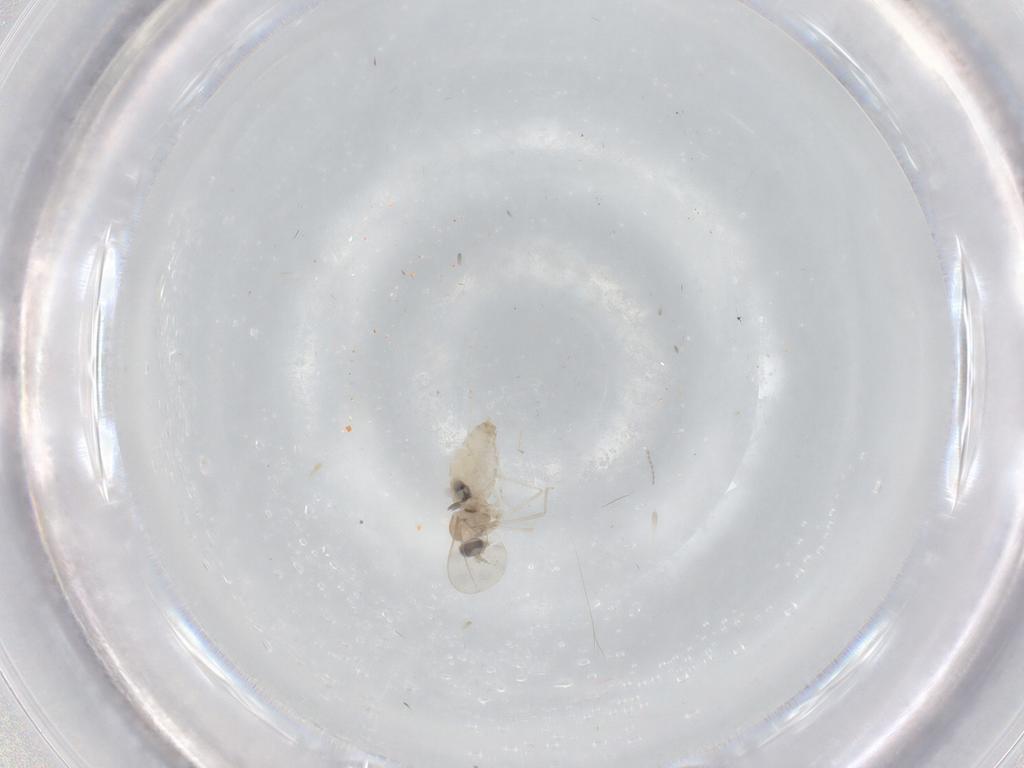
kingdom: Animalia
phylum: Arthropoda
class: Insecta
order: Diptera
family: Cecidomyiidae
